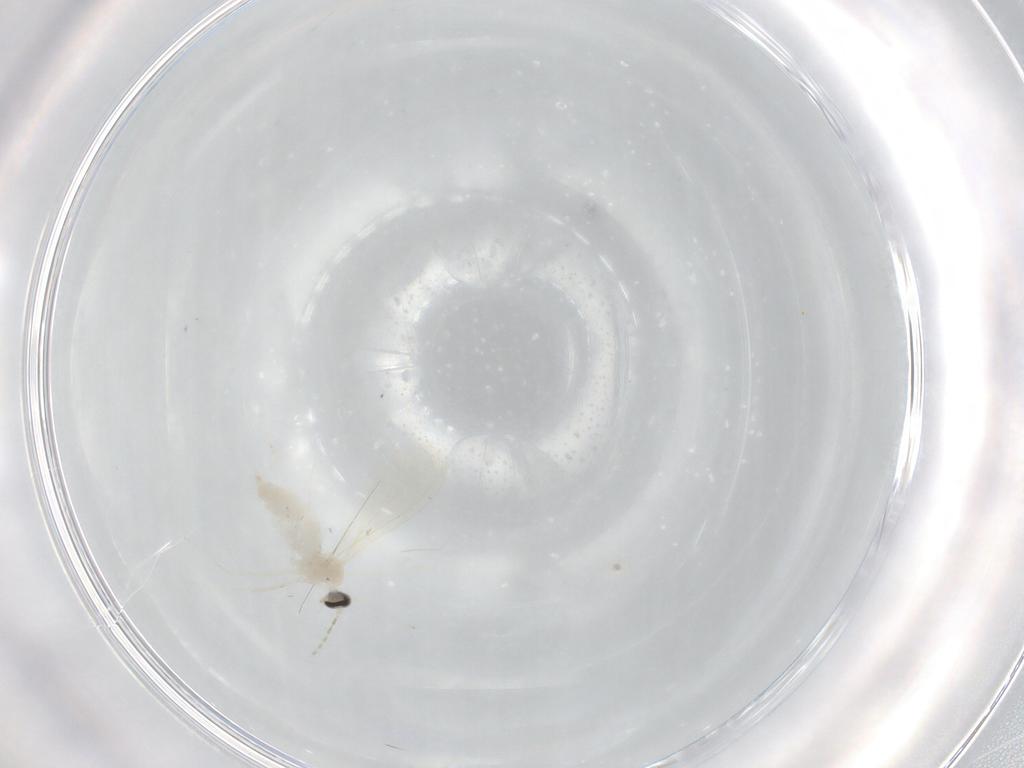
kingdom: Animalia
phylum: Arthropoda
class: Insecta
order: Diptera
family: Cecidomyiidae
